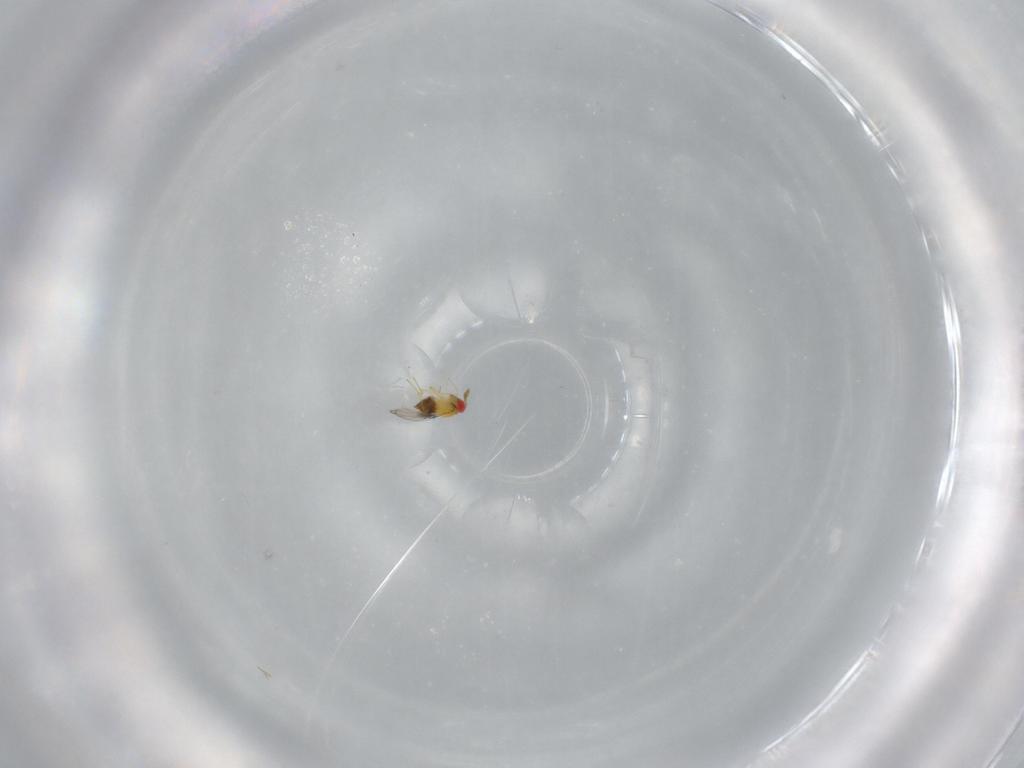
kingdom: Animalia
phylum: Arthropoda
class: Insecta
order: Hymenoptera
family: Trichogrammatidae
